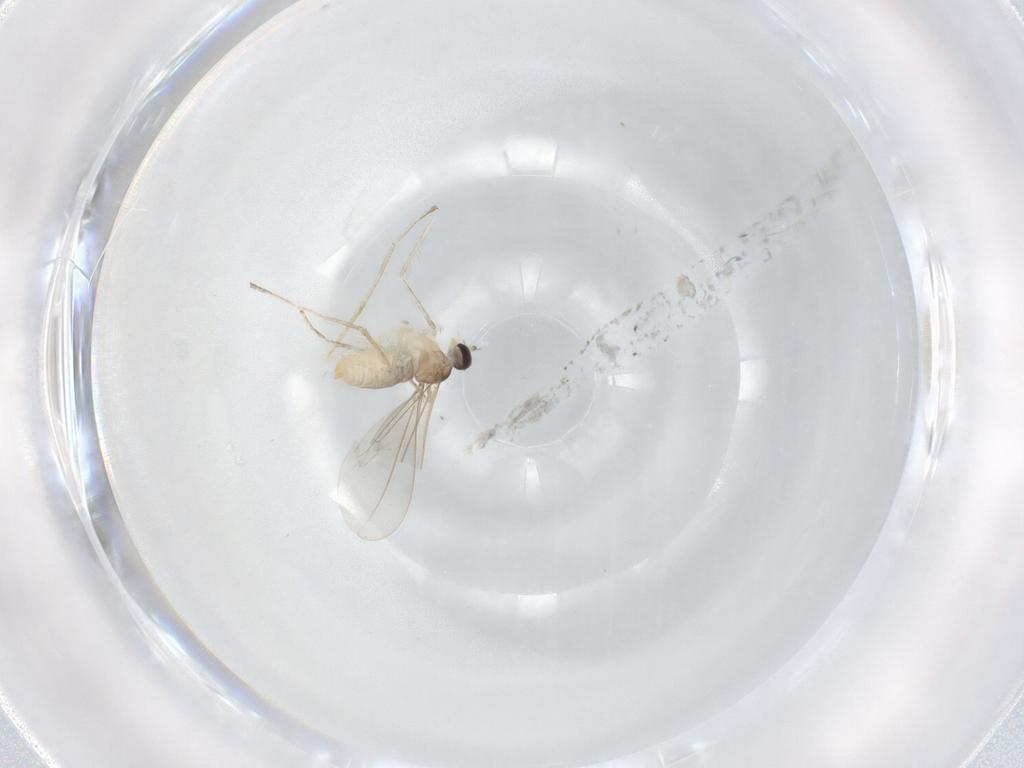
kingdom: Animalia
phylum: Arthropoda
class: Insecta
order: Diptera
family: Cecidomyiidae
